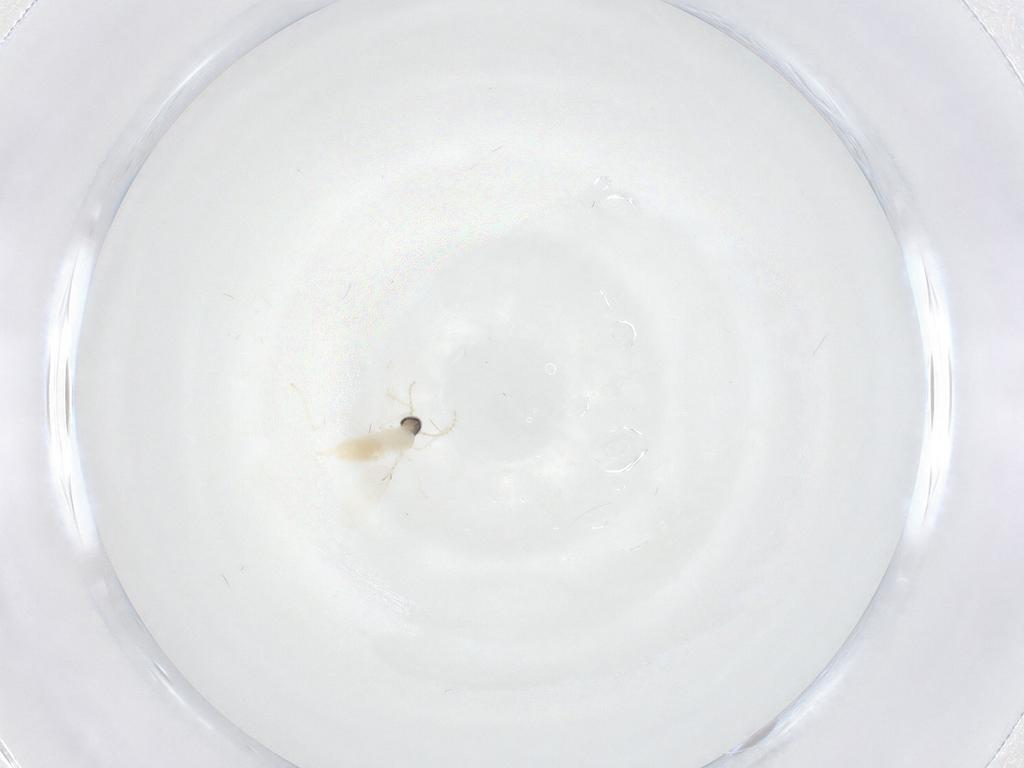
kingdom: Animalia
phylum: Arthropoda
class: Insecta
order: Diptera
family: Cecidomyiidae
